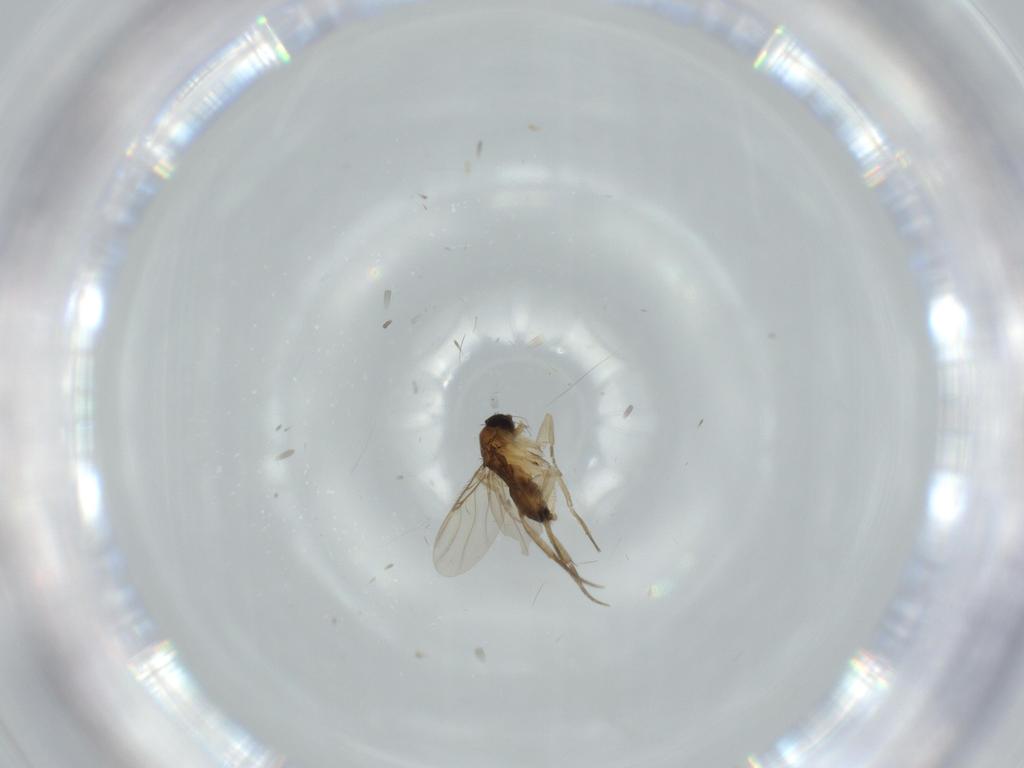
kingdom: Animalia
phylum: Arthropoda
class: Insecta
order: Diptera
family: Phoridae
